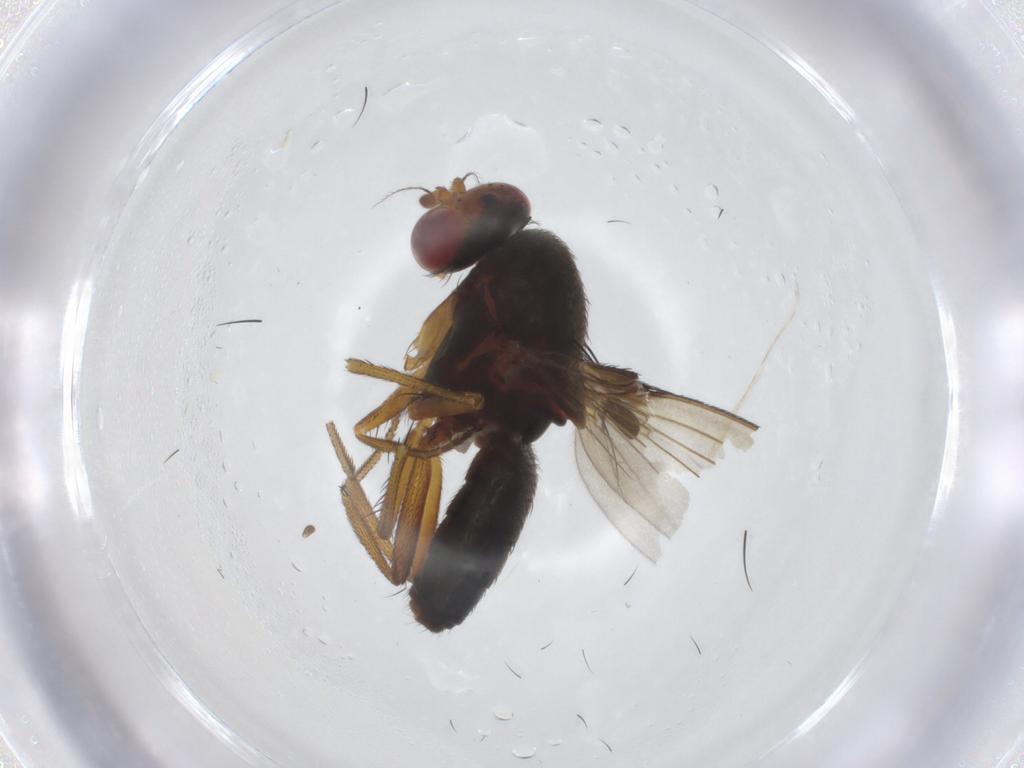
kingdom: Animalia
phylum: Arthropoda
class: Insecta
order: Diptera
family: Diastatidae
